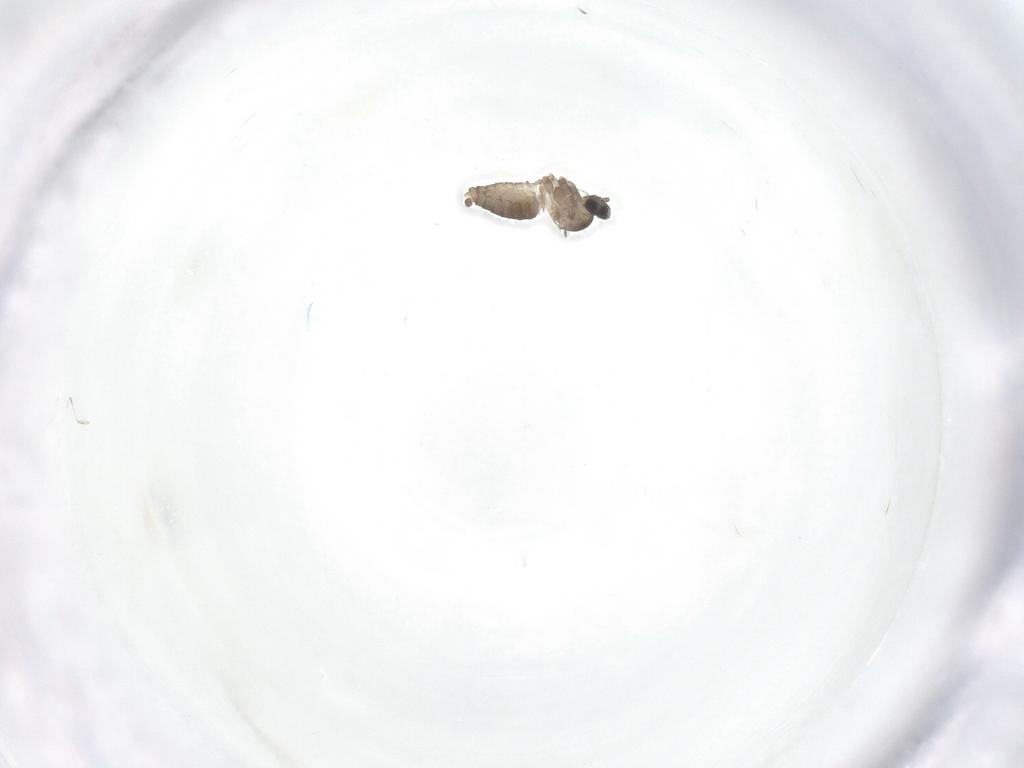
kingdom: Animalia
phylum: Arthropoda
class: Insecta
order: Diptera
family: Cecidomyiidae
